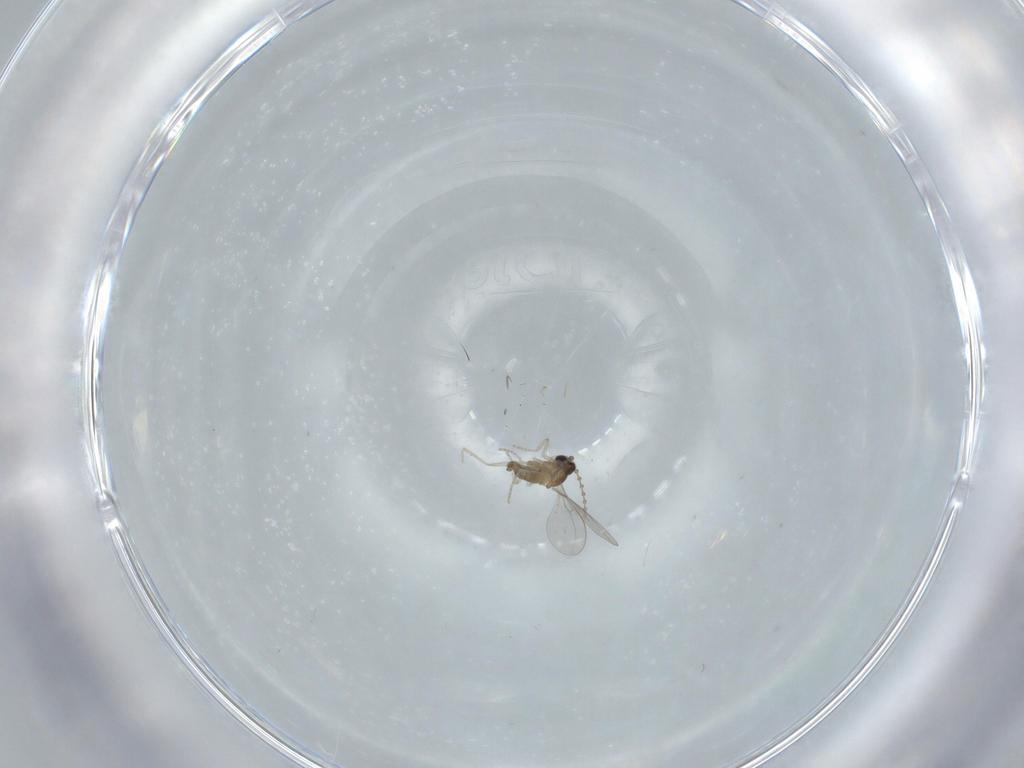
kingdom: Animalia
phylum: Arthropoda
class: Insecta
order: Diptera
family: Cecidomyiidae
